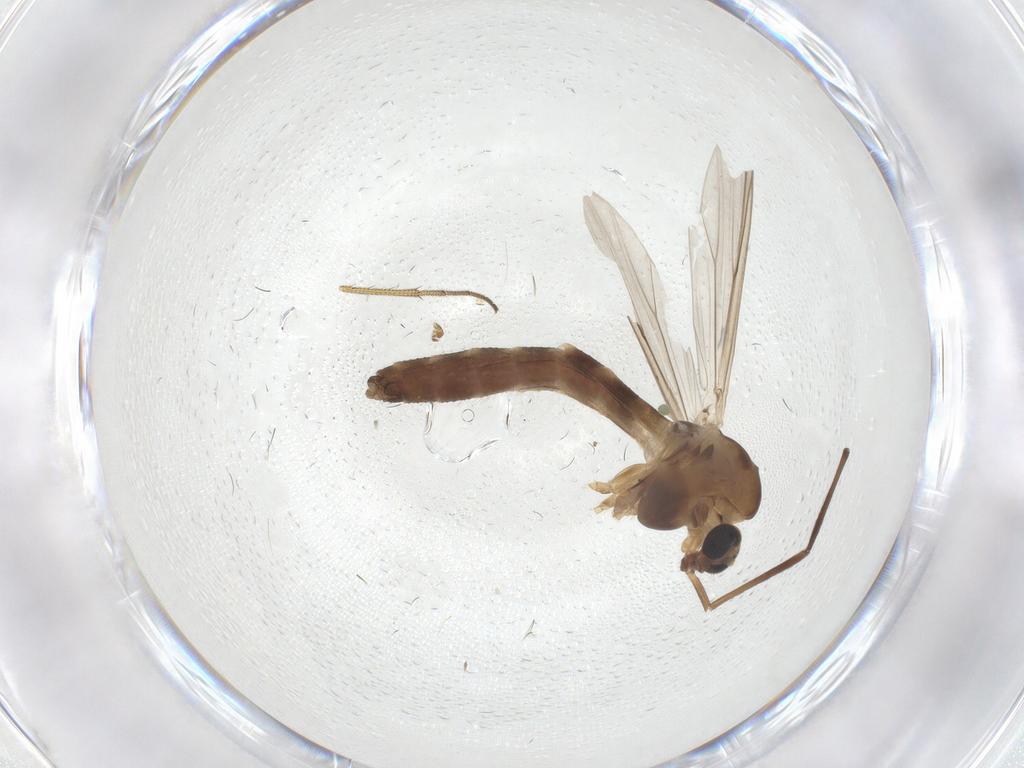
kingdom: Animalia
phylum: Arthropoda
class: Insecta
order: Diptera
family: Chironomidae
